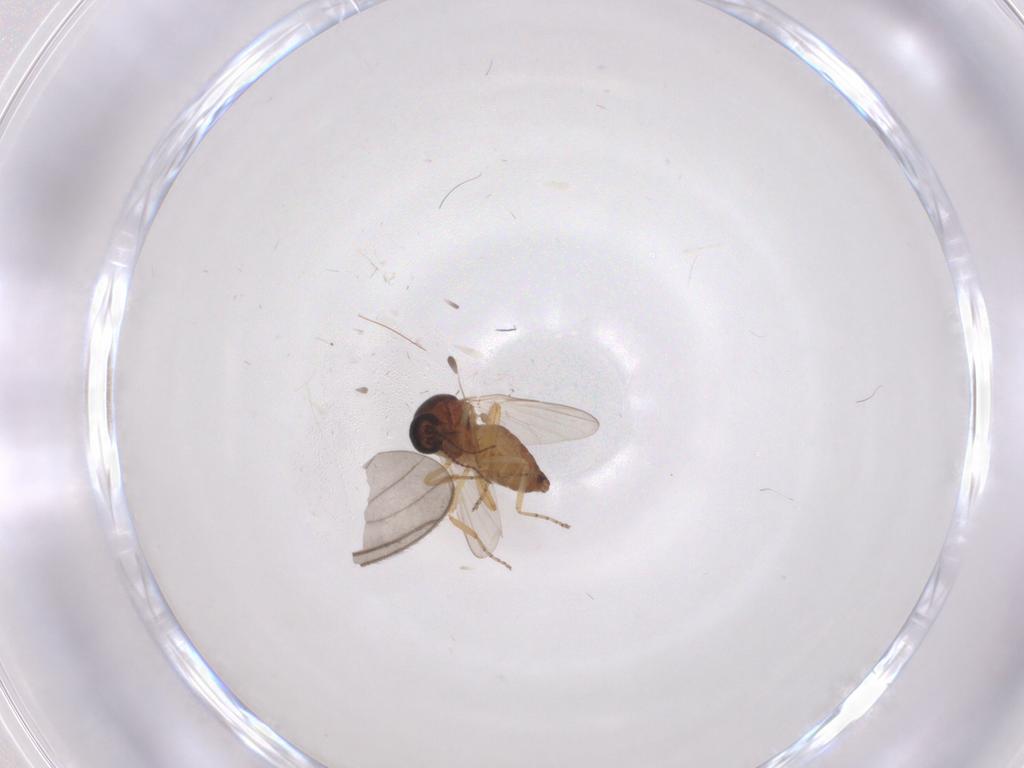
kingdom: Animalia
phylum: Arthropoda
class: Insecta
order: Diptera
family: Ceratopogonidae
